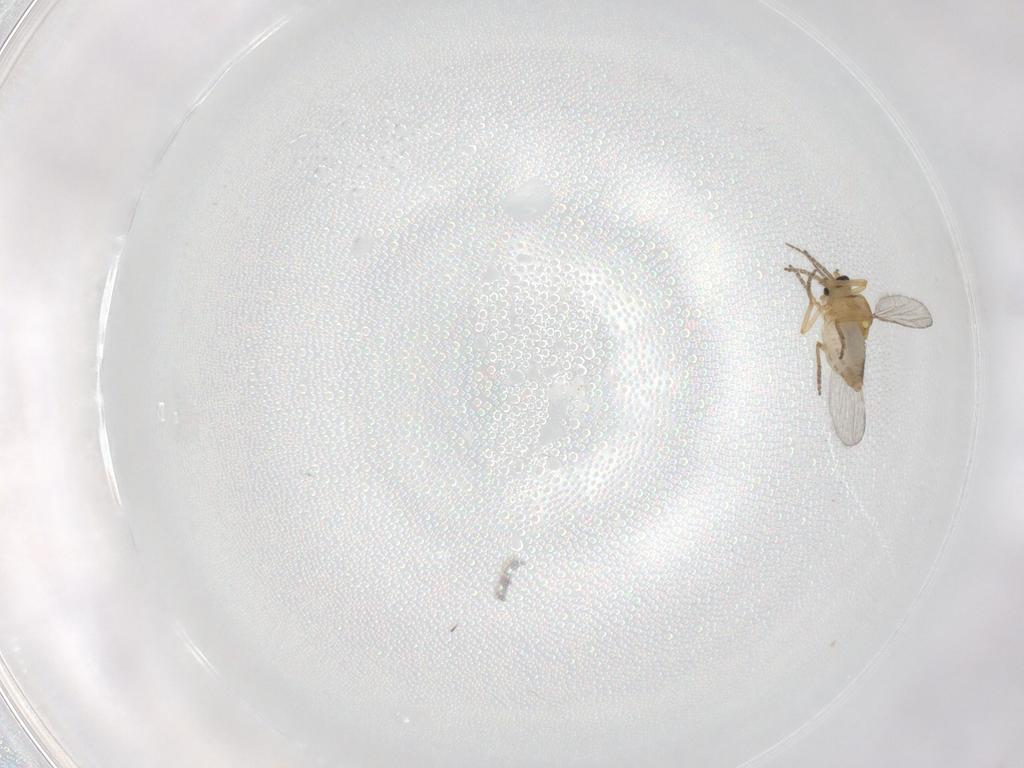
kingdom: Animalia
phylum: Arthropoda
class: Insecta
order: Diptera
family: Ceratopogonidae
